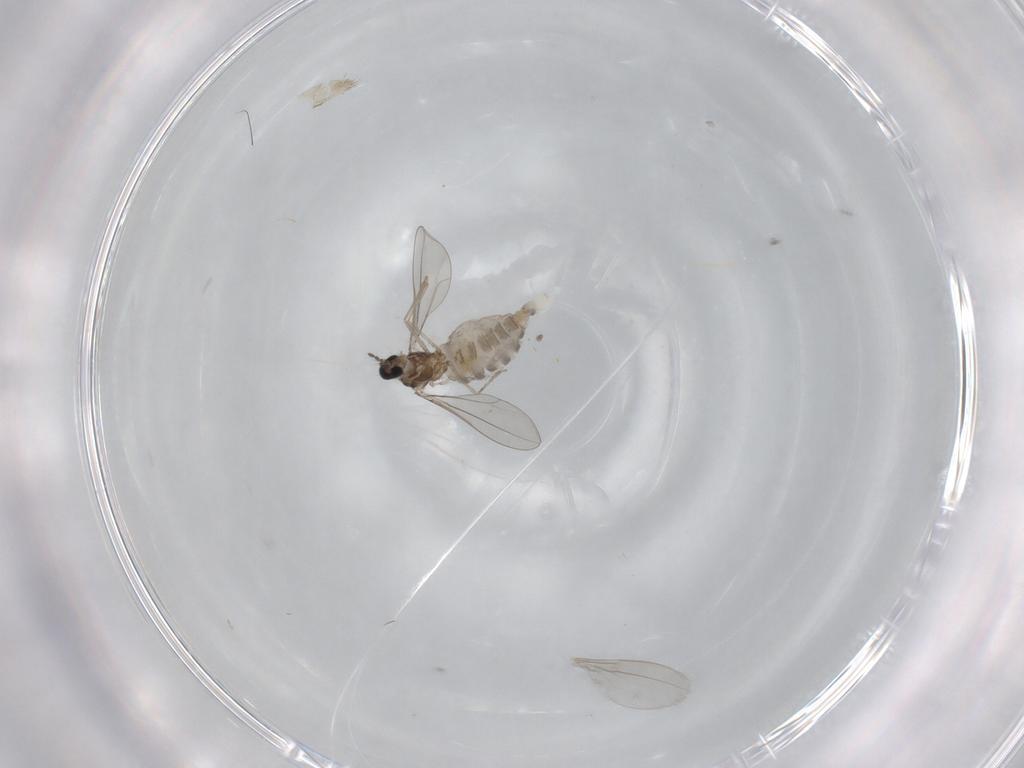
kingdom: Animalia
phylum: Arthropoda
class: Insecta
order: Diptera
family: Cecidomyiidae
